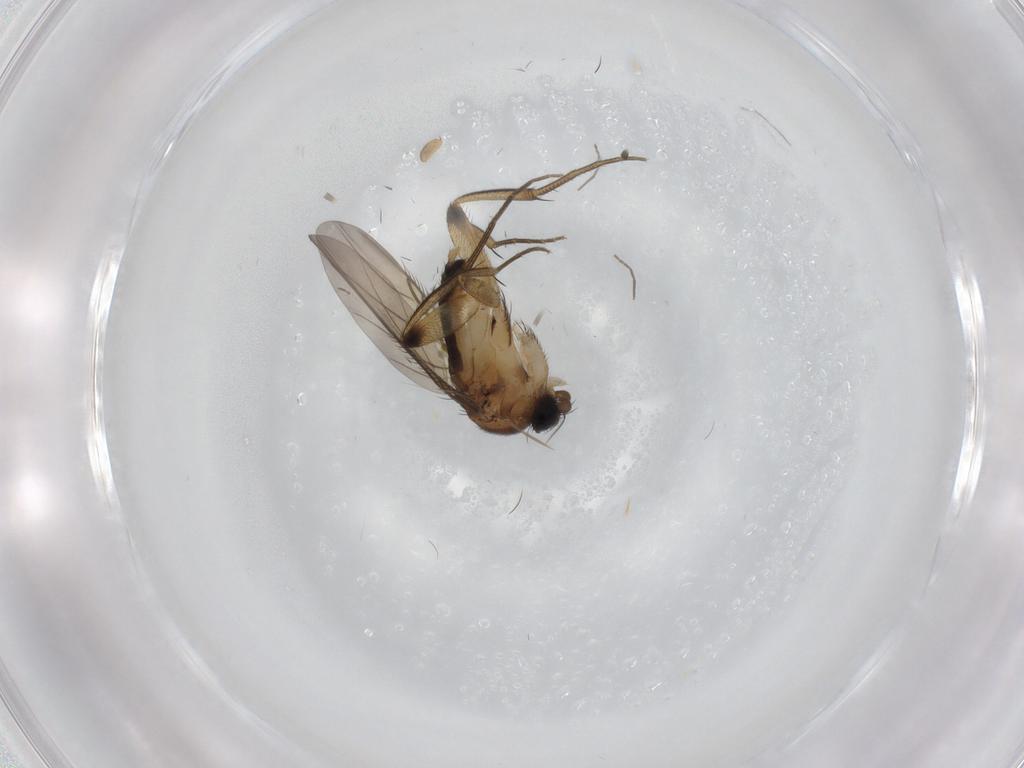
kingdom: Animalia
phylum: Arthropoda
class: Insecta
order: Diptera
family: Phoridae
